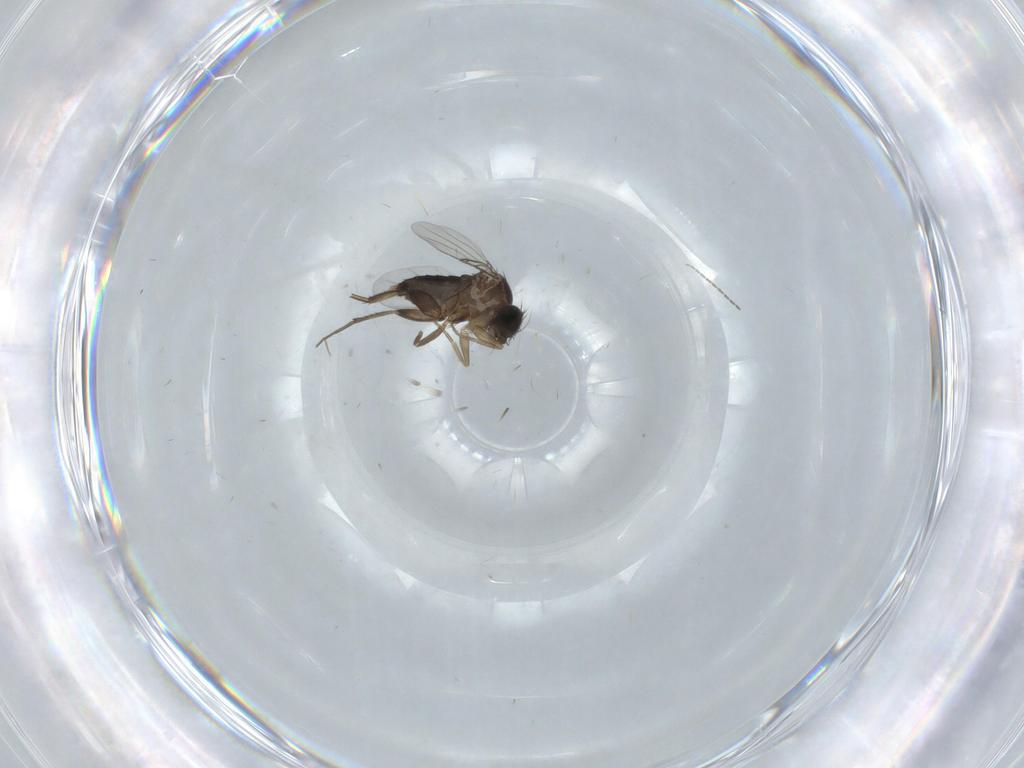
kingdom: Animalia
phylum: Arthropoda
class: Insecta
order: Diptera
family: Phoridae
